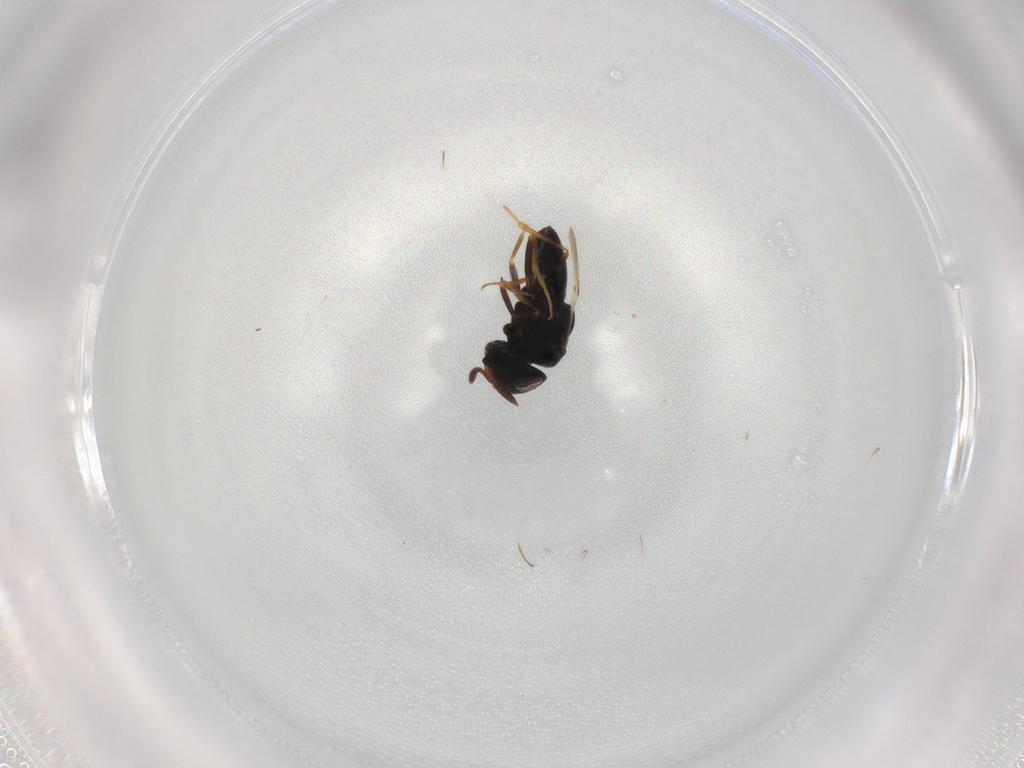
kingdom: Animalia
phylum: Arthropoda
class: Insecta
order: Hymenoptera
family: Scelionidae
